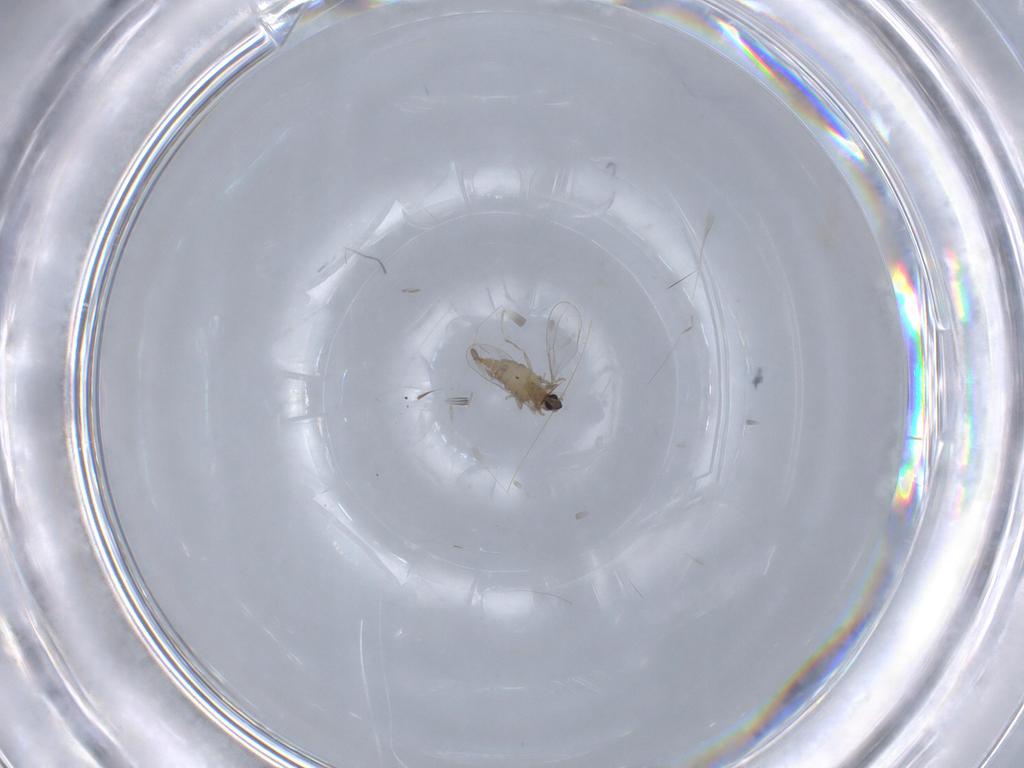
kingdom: Animalia
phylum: Arthropoda
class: Insecta
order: Diptera
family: Cecidomyiidae
